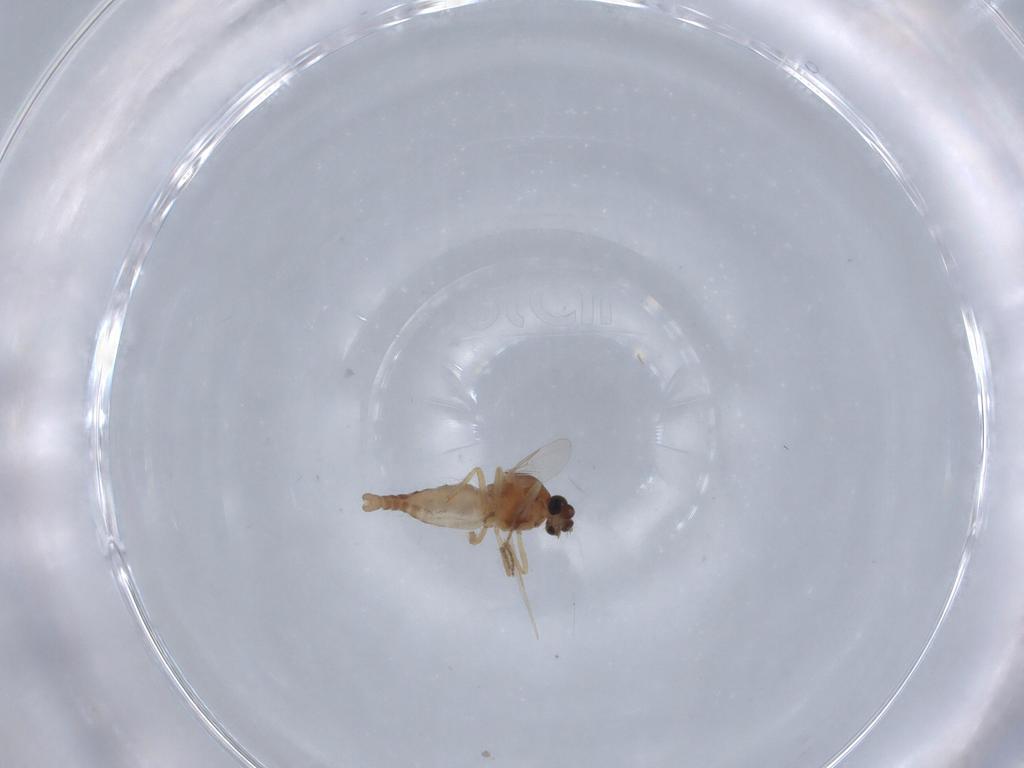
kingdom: Animalia
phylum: Arthropoda
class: Insecta
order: Diptera
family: Ceratopogonidae
